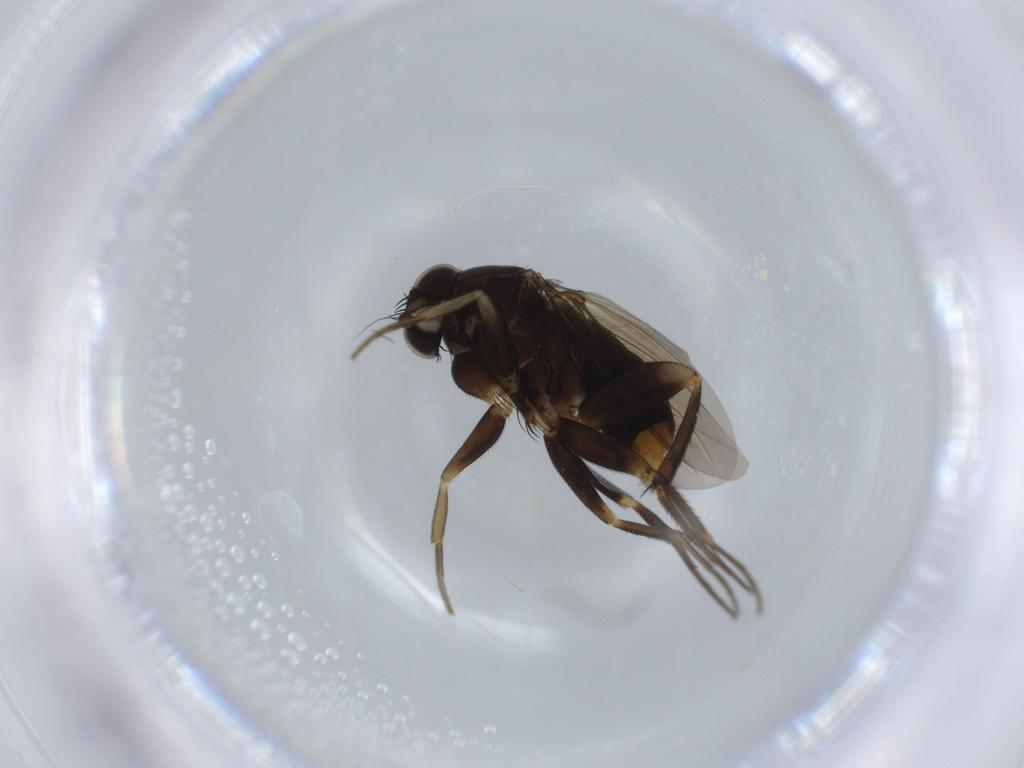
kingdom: Animalia
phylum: Arthropoda
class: Insecta
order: Diptera
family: Phoridae
